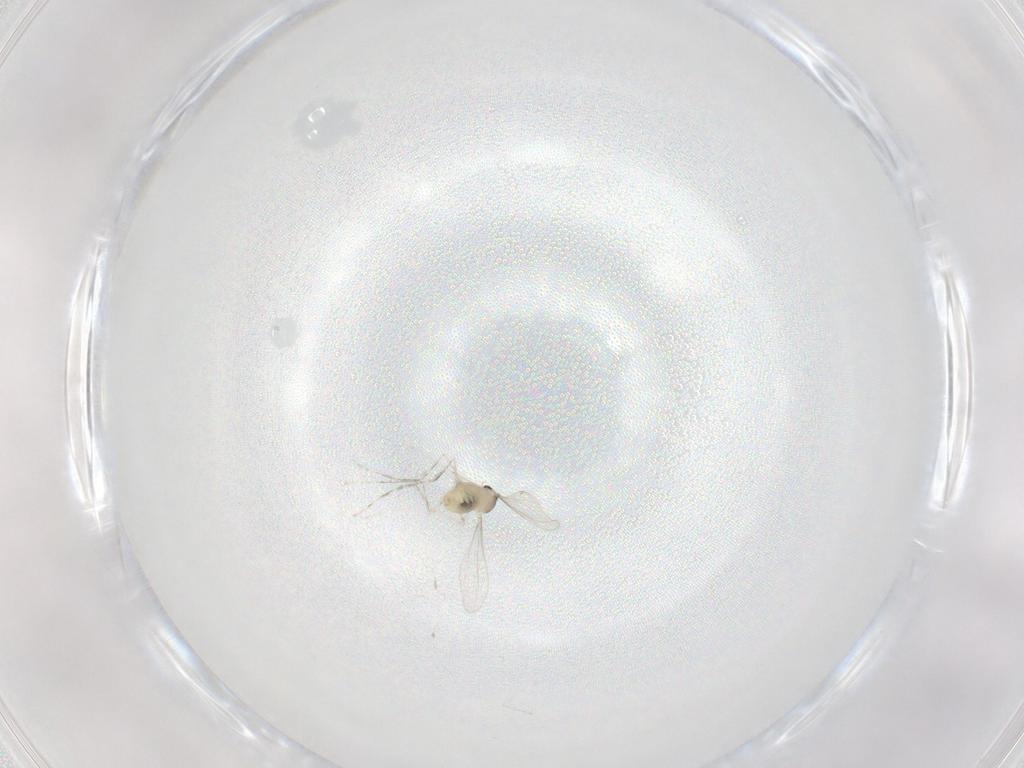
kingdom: Animalia
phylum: Arthropoda
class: Insecta
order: Diptera
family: Cecidomyiidae
